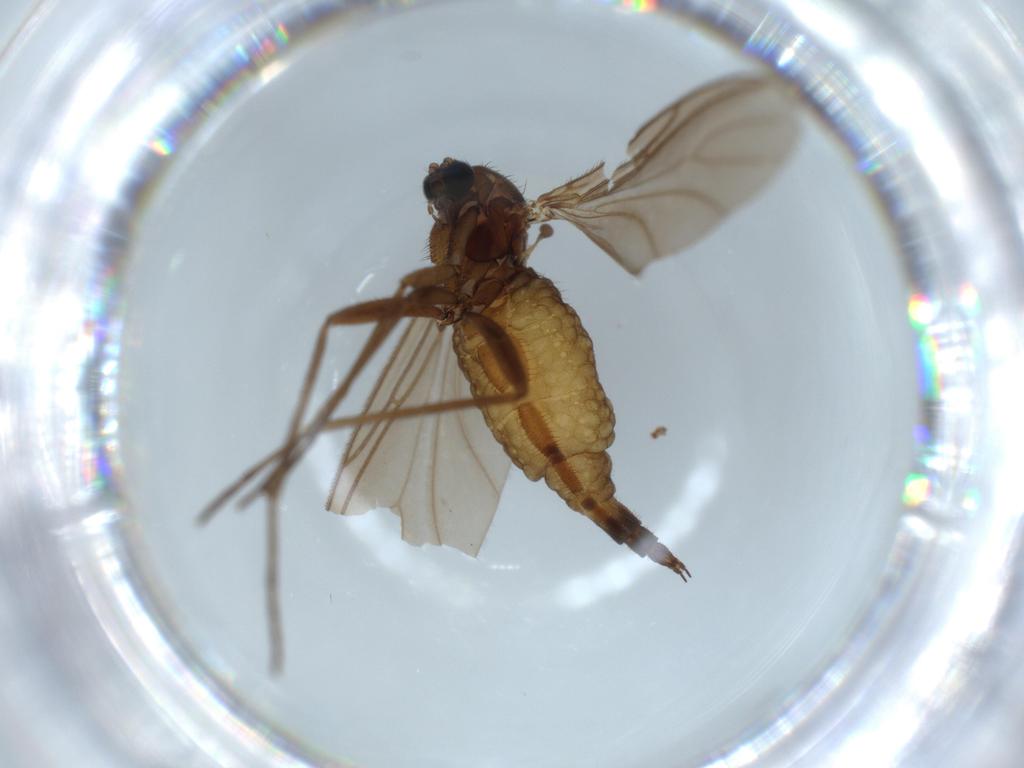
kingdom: Animalia
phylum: Arthropoda
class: Insecta
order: Diptera
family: Sciaridae
